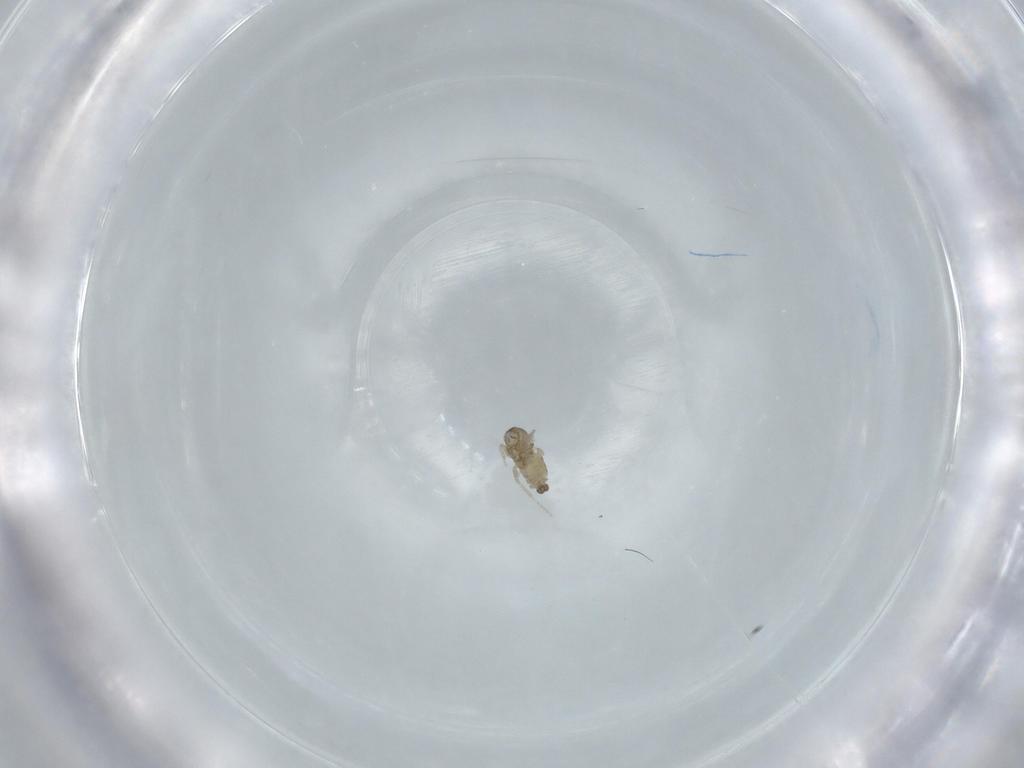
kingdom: Animalia
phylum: Arthropoda
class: Insecta
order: Diptera
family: Cecidomyiidae
